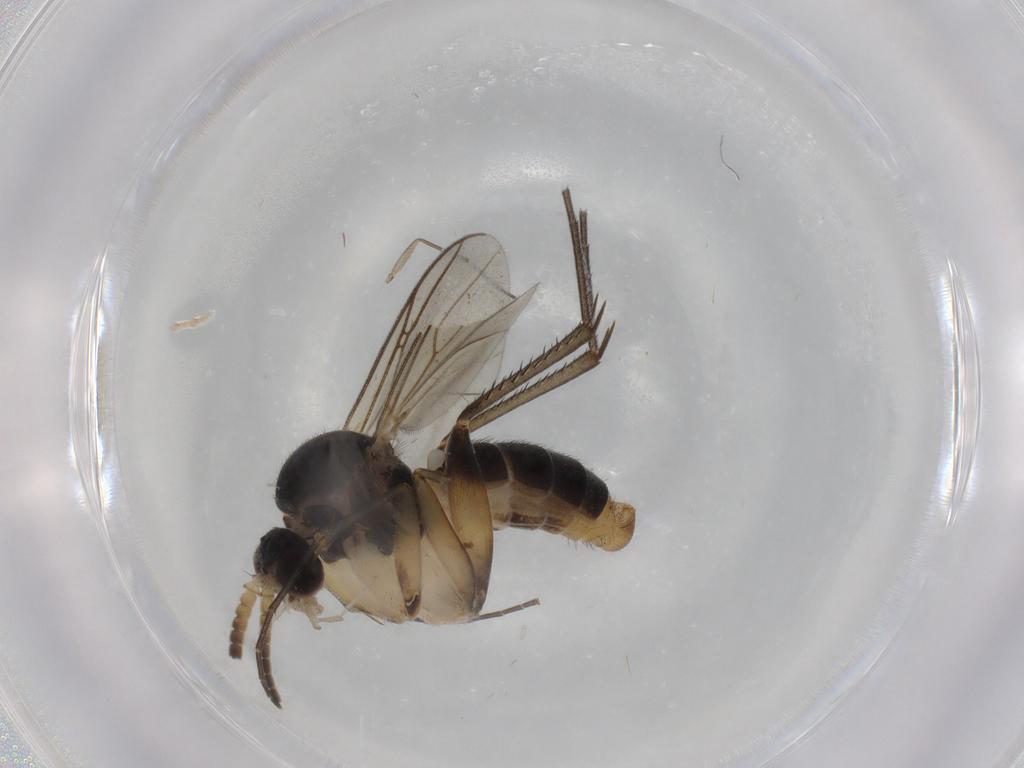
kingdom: Animalia
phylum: Arthropoda
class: Insecta
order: Diptera
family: Mycetophilidae
